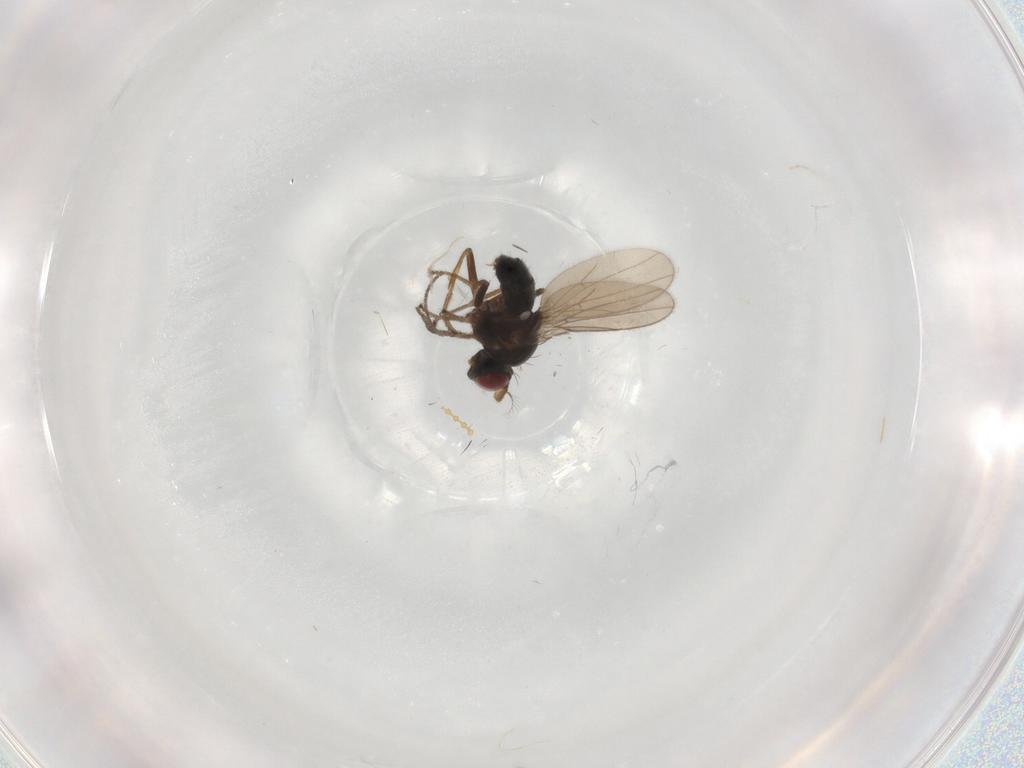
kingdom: Animalia
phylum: Arthropoda
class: Insecta
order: Diptera
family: Ephydridae
